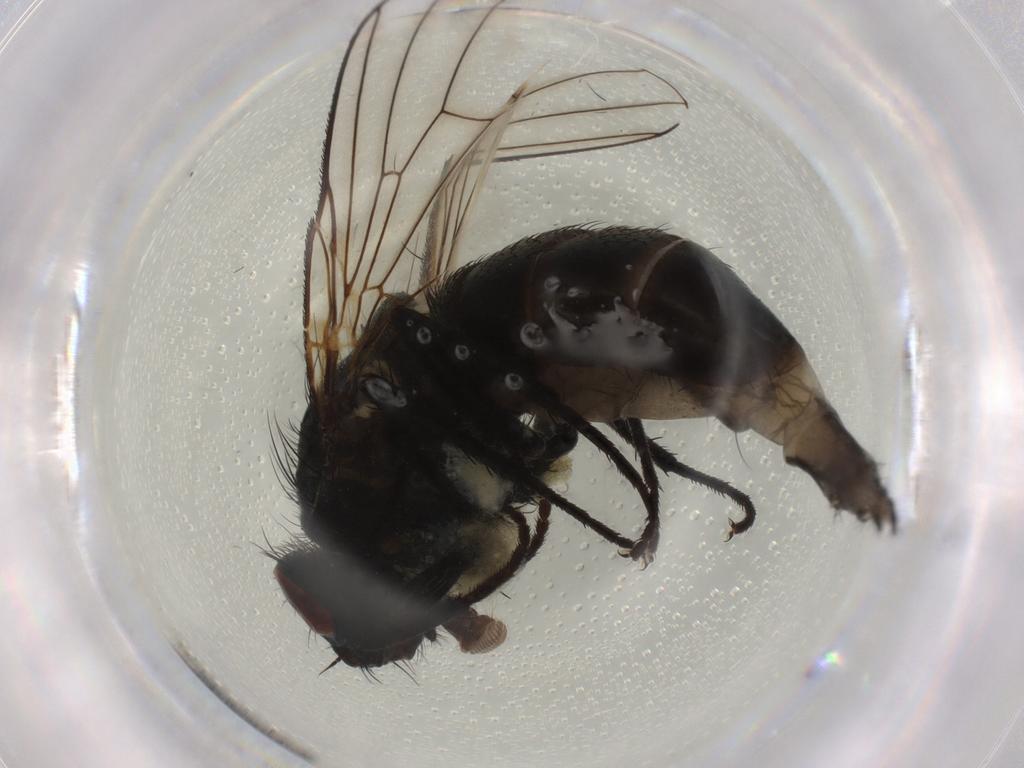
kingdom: Animalia
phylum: Arthropoda
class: Insecta
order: Diptera
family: Muscidae
